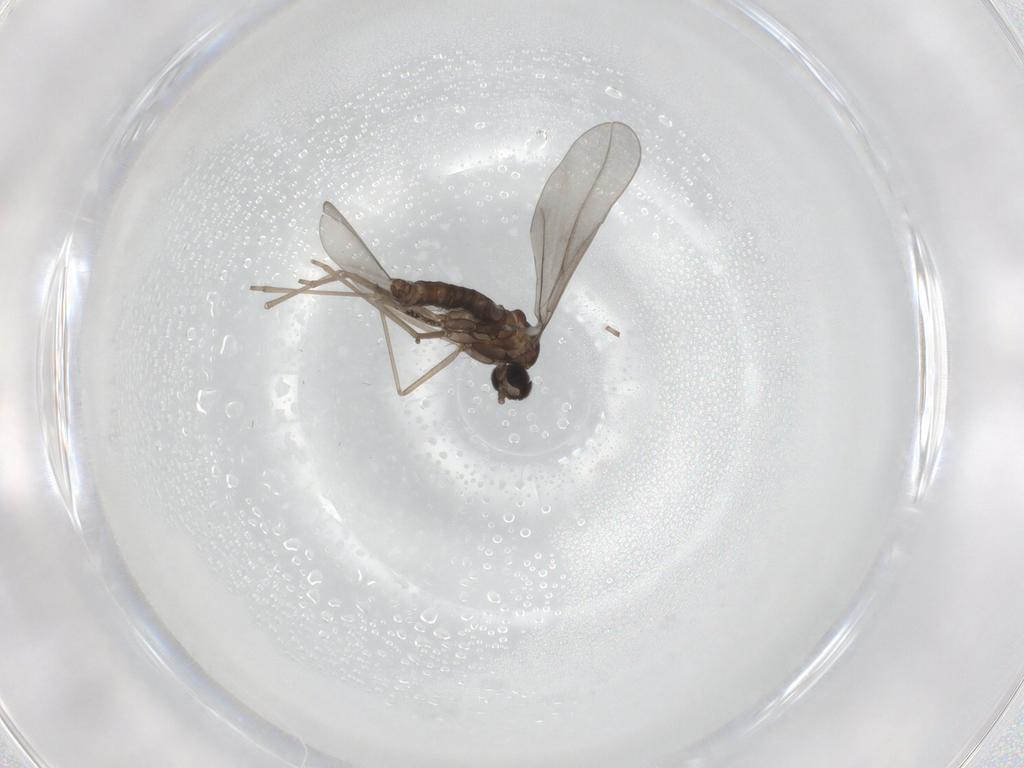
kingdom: Animalia
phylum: Arthropoda
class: Insecta
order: Diptera
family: Cecidomyiidae
